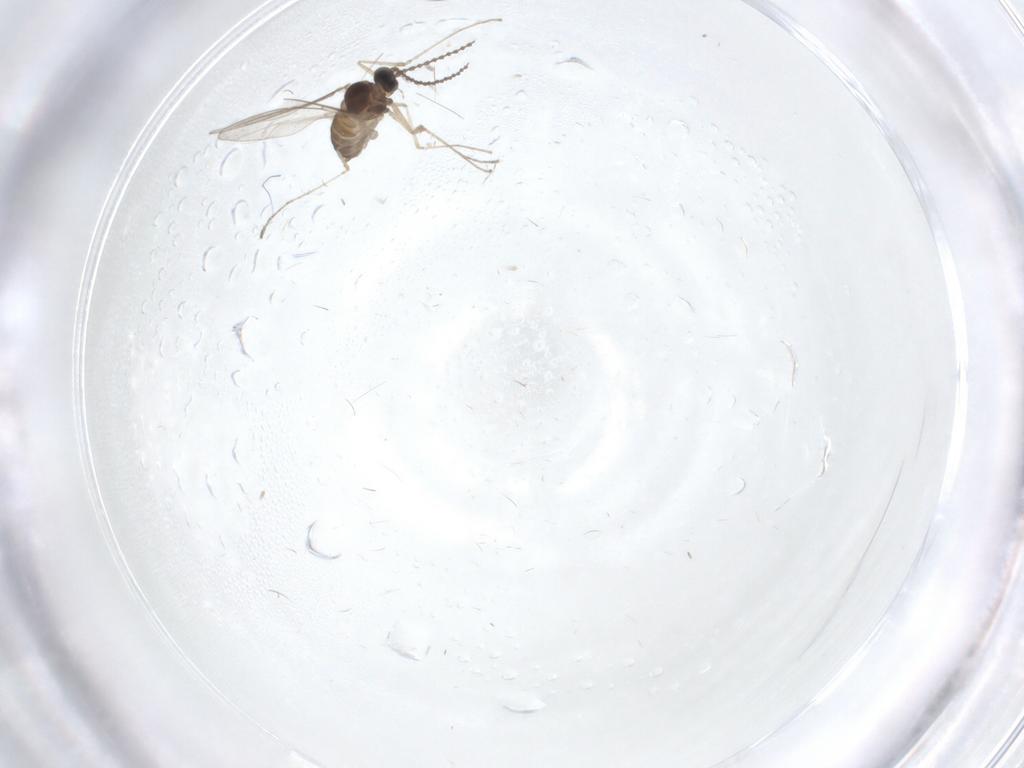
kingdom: Animalia
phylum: Arthropoda
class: Insecta
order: Diptera
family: Cecidomyiidae
